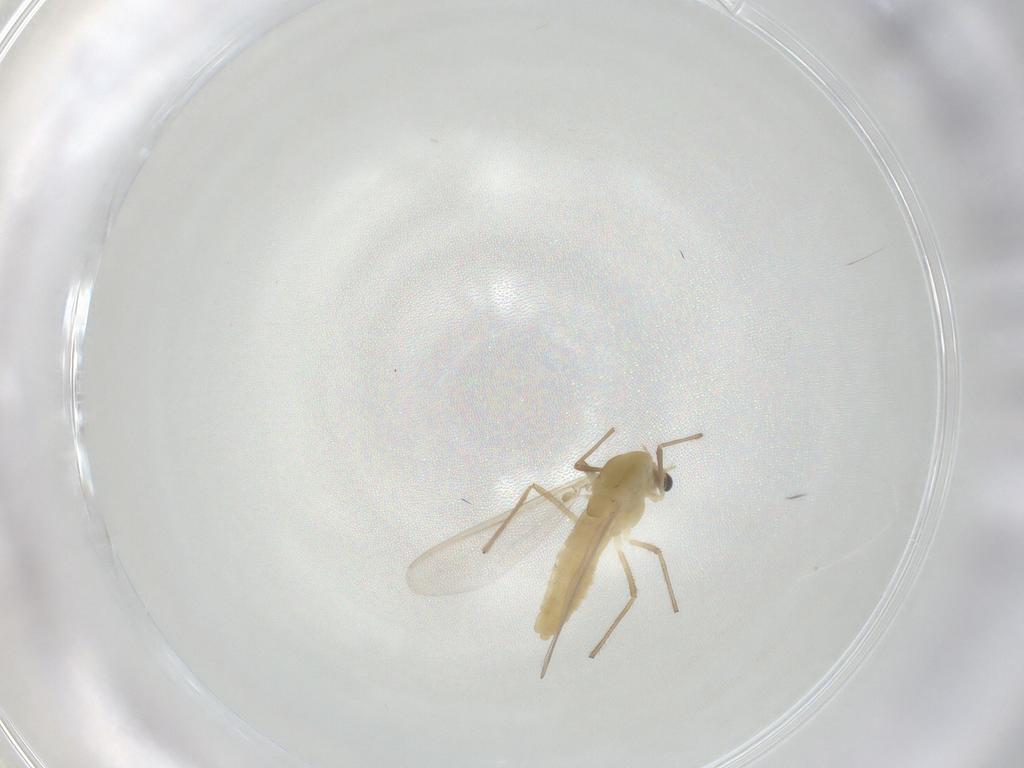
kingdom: Animalia
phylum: Arthropoda
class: Insecta
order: Diptera
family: Chironomidae
